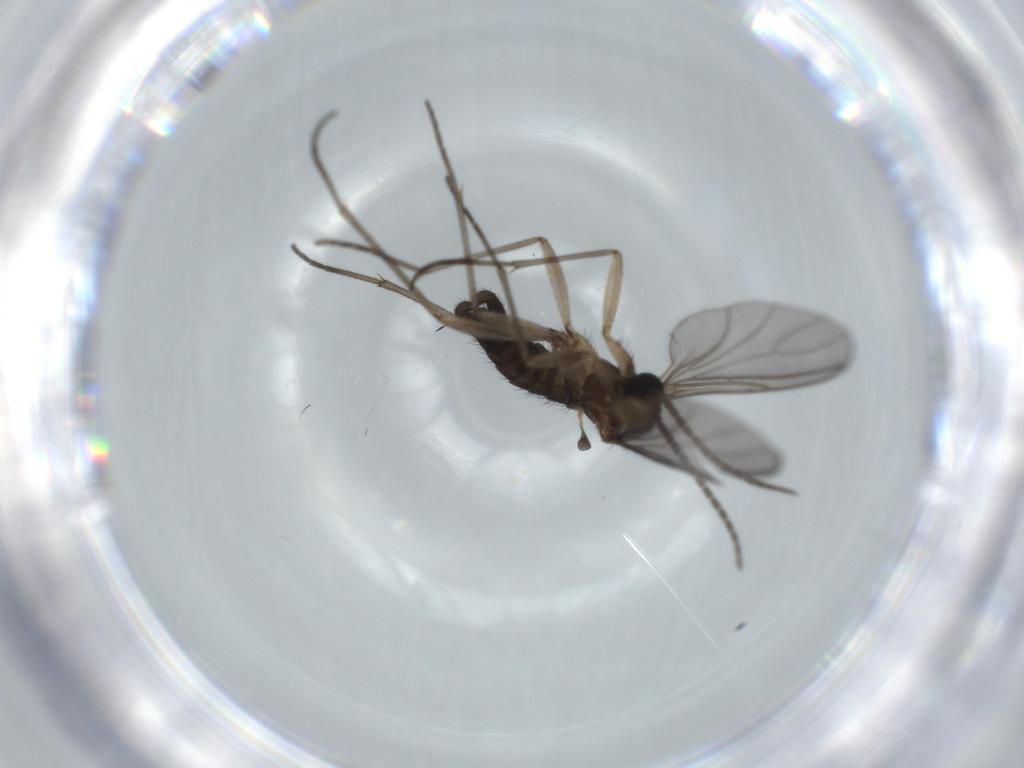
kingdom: Animalia
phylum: Arthropoda
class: Insecta
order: Diptera
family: Sciaridae
